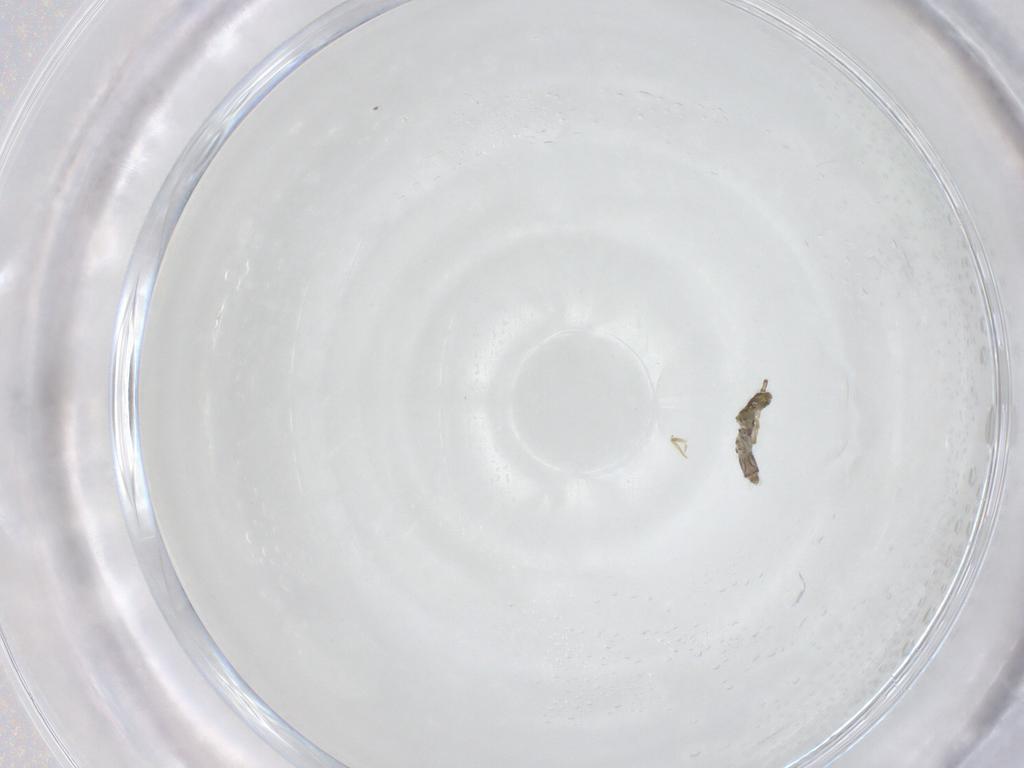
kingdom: Animalia
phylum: Arthropoda
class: Collembola
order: Entomobryomorpha
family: Entomobryidae
